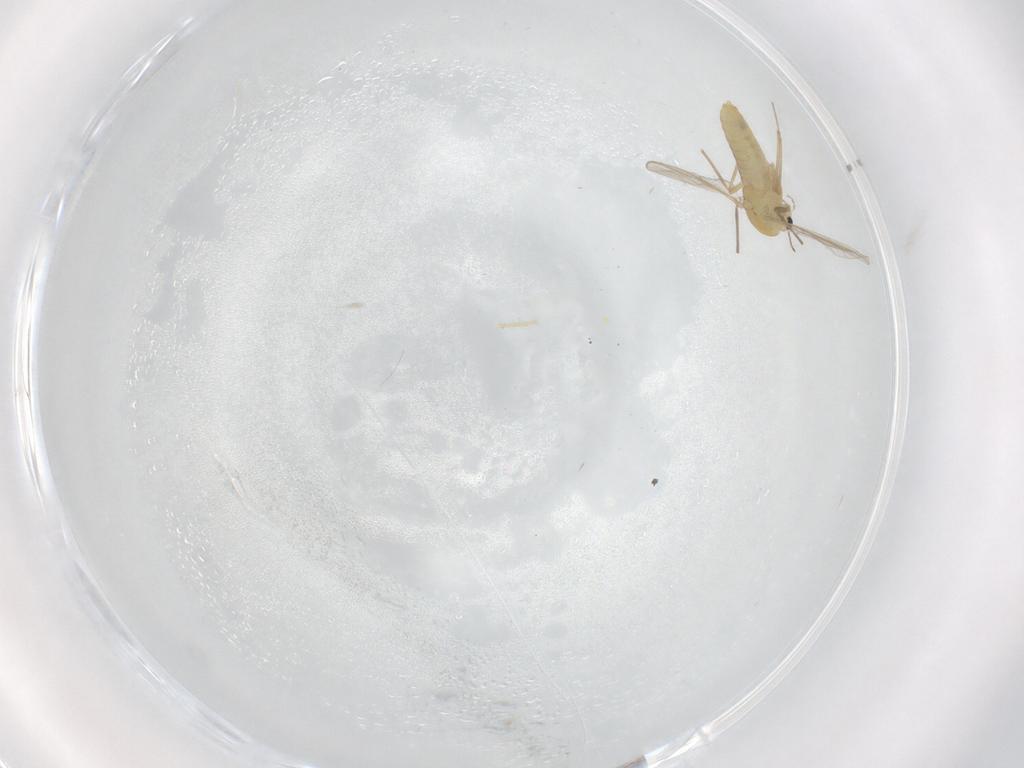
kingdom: Animalia
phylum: Arthropoda
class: Insecta
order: Diptera
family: Chironomidae
